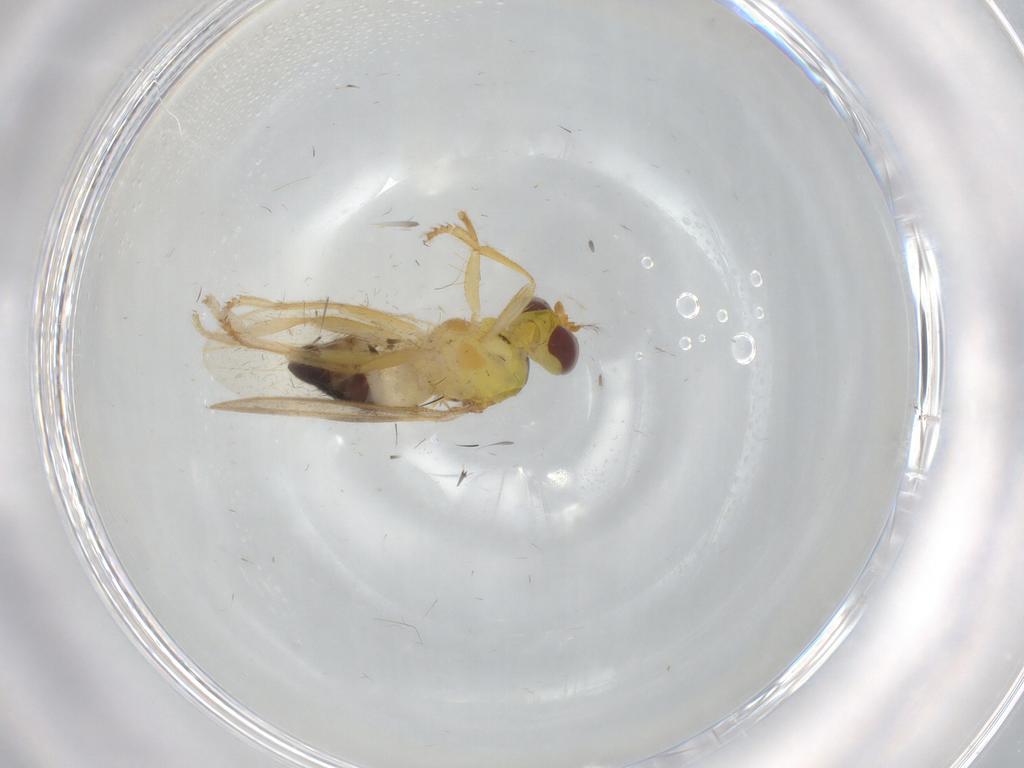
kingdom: Animalia
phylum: Arthropoda
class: Insecta
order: Diptera
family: Periscelididae
